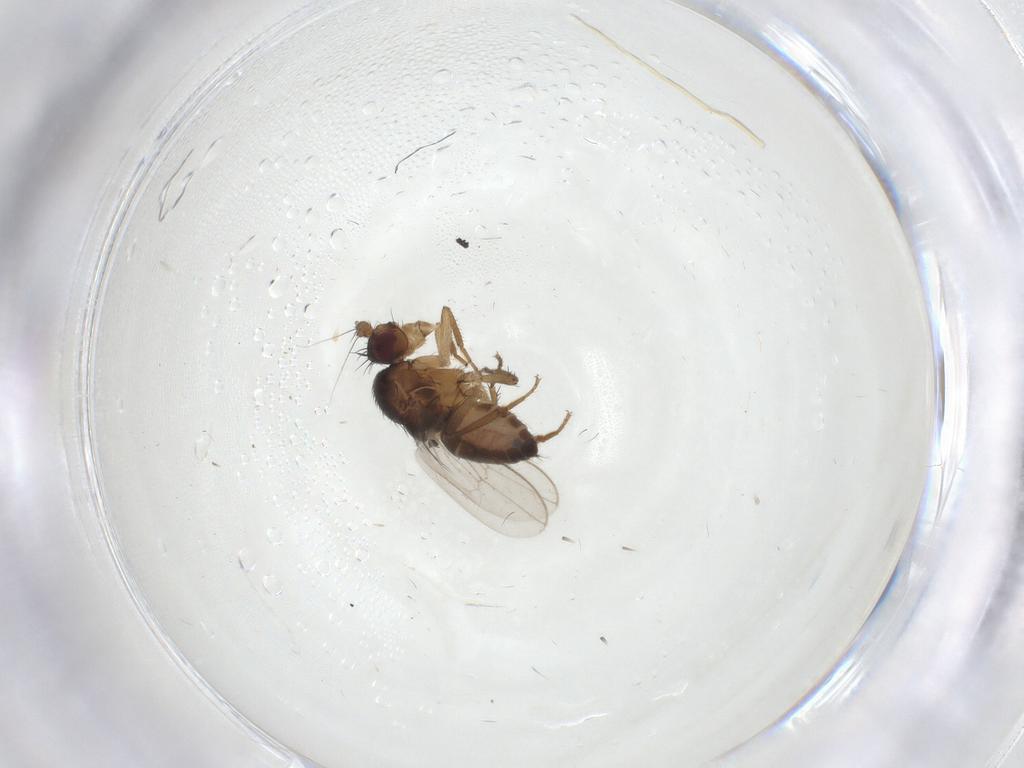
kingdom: Animalia
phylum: Arthropoda
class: Insecta
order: Diptera
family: Sphaeroceridae
